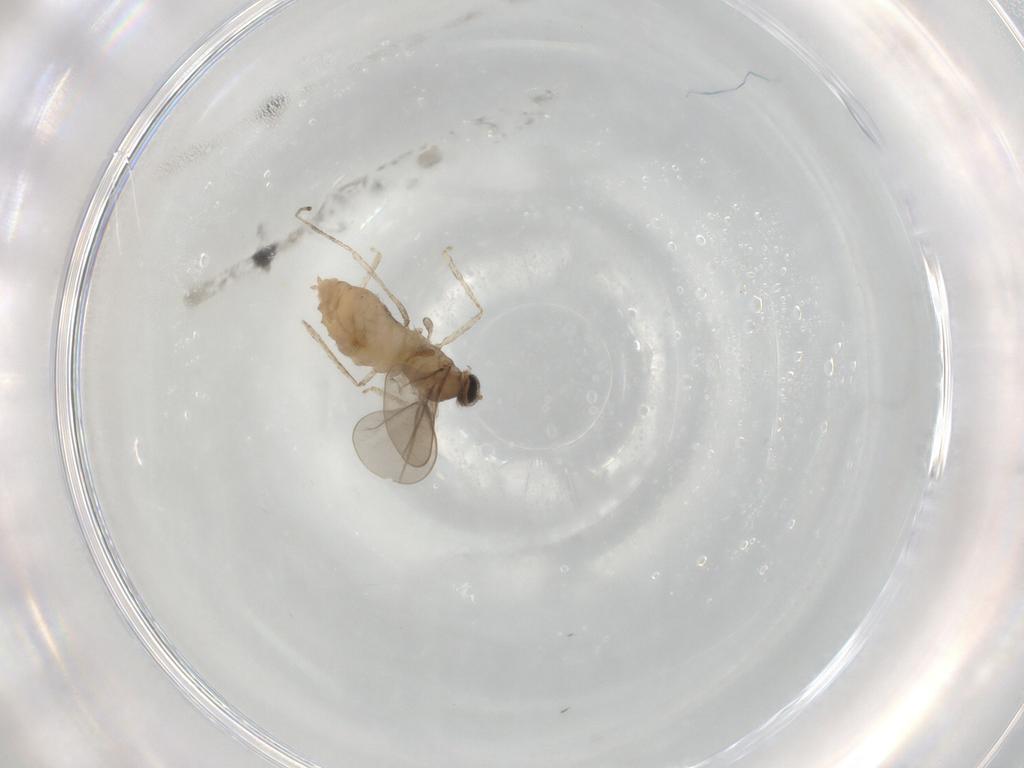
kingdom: Animalia
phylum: Arthropoda
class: Insecta
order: Diptera
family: Cecidomyiidae
